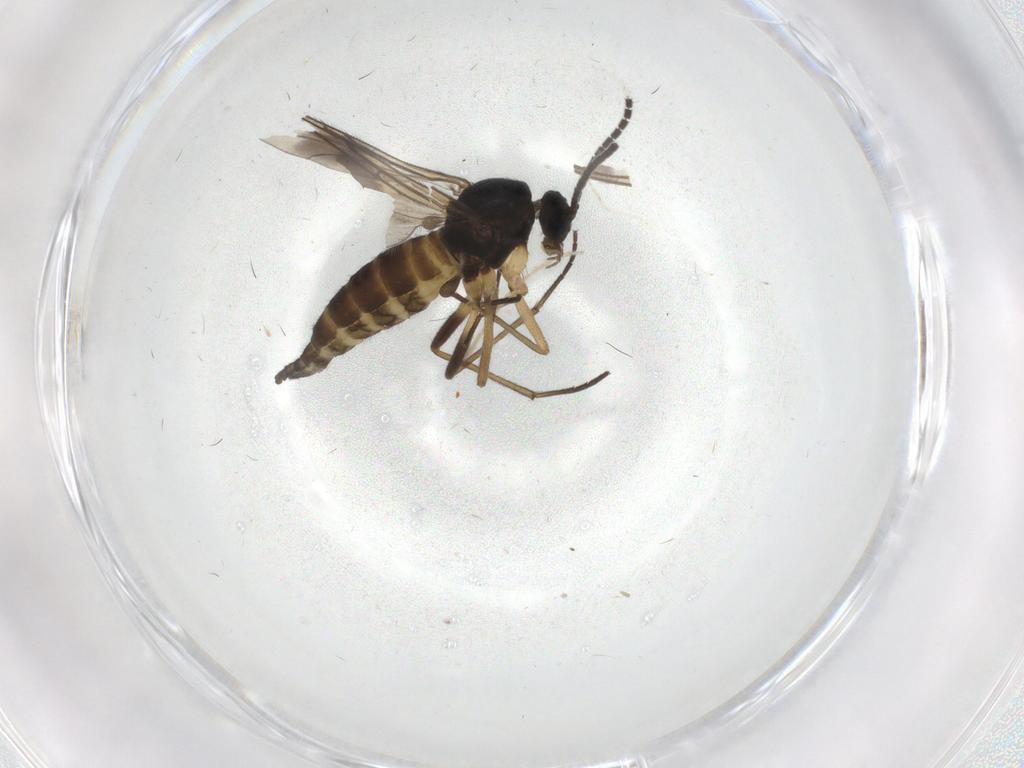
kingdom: Animalia
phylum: Arthropoda
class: Insecta
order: Diptera
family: Sciaridae
